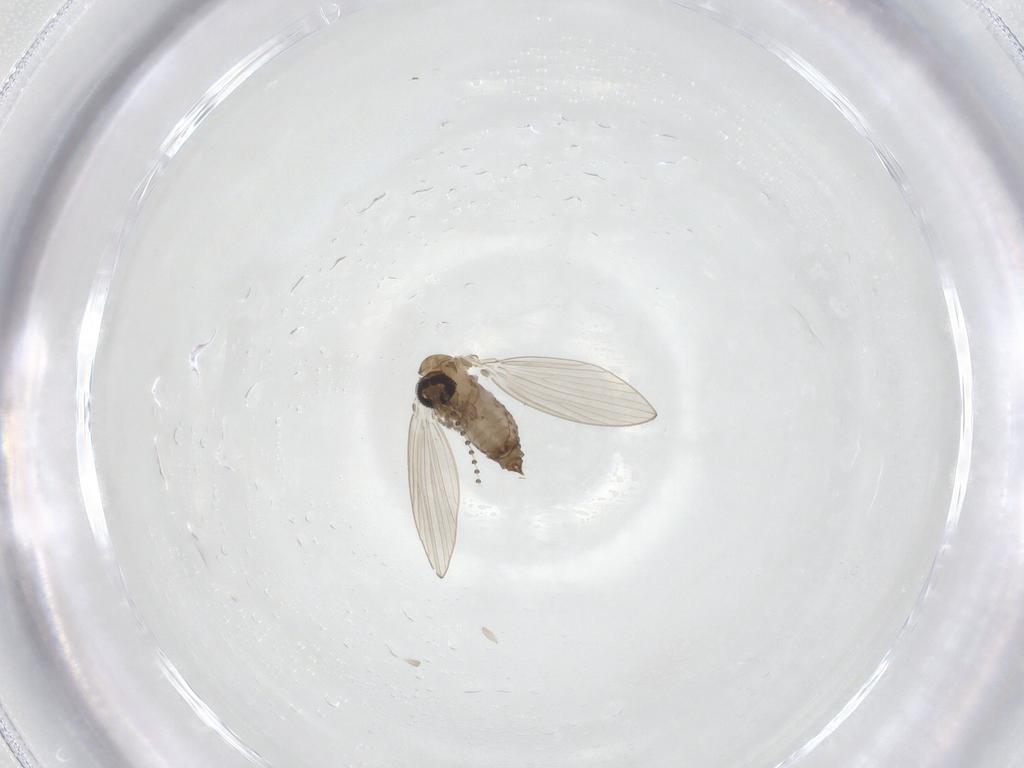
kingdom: Animalia
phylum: Arthropoda
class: Insecta
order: Diptera
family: Psychodidae
